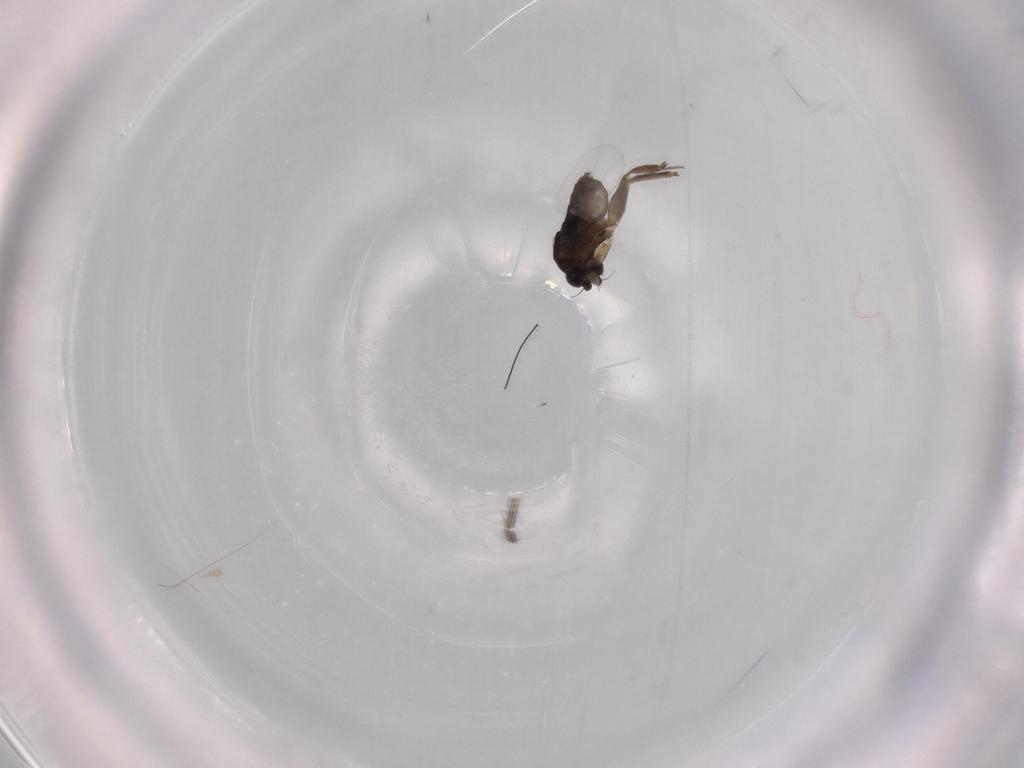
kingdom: Animalia
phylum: Arthropoda
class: Insecta
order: Diptera
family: Phoridae
